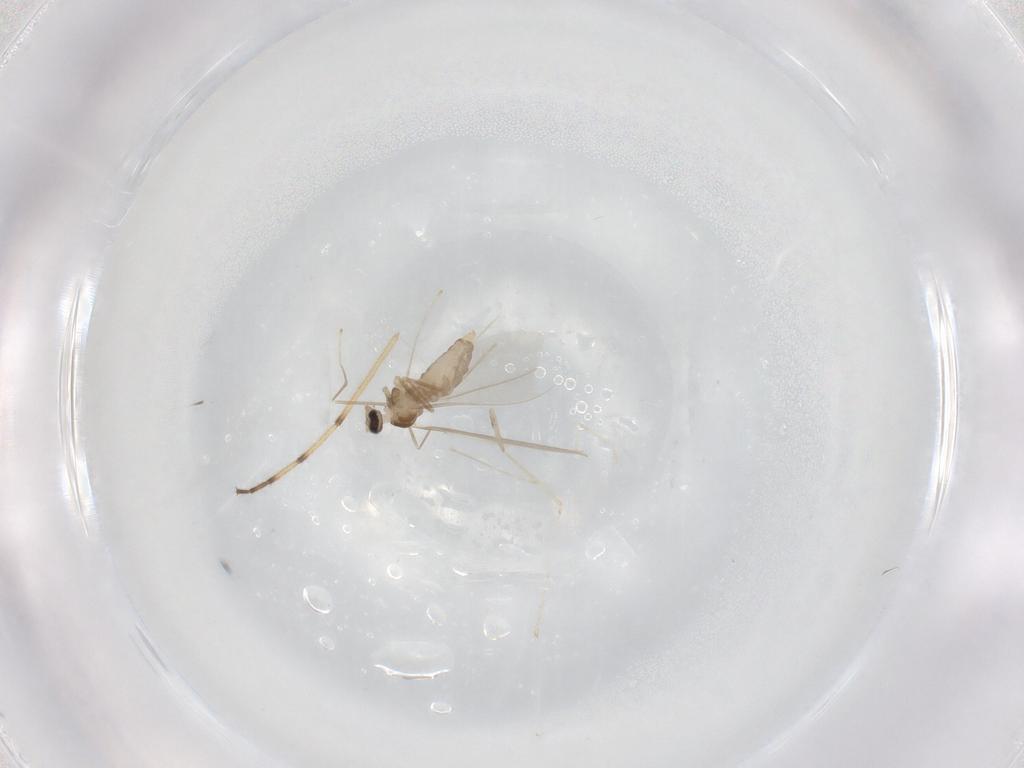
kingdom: Animalia
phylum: Arthropoda
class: Insecta
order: Diptera
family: Cecidomyiidae
